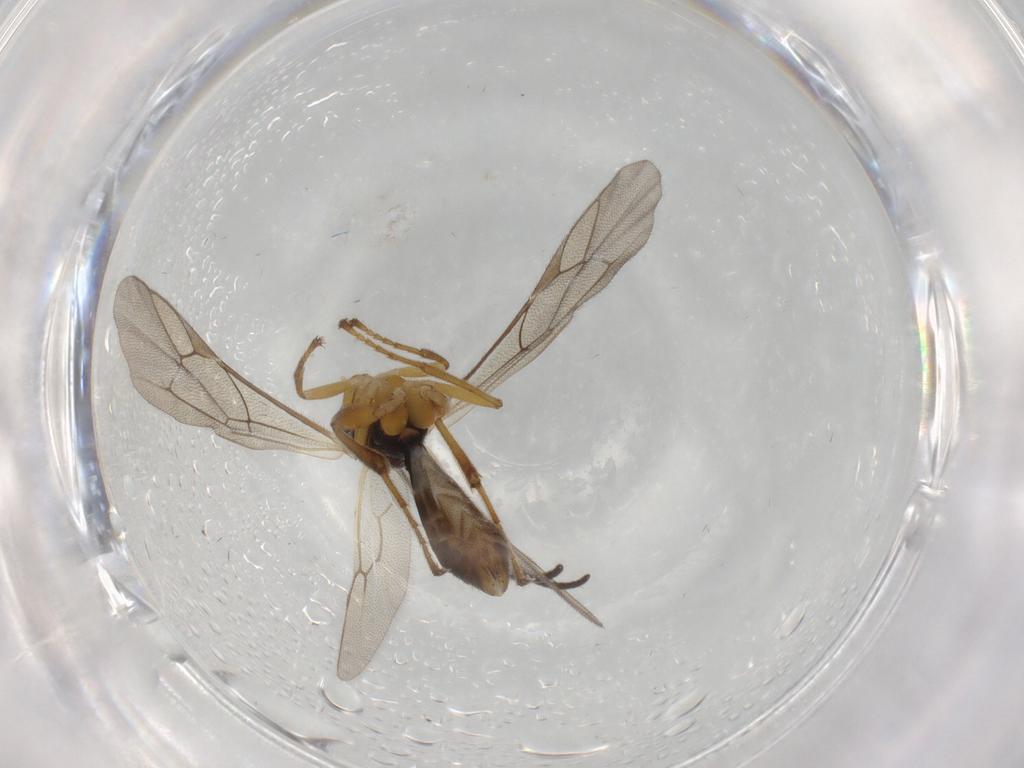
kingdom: Animalia
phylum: Arthropoda
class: Insecta
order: Hymenoptera
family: Ichneumonidae
